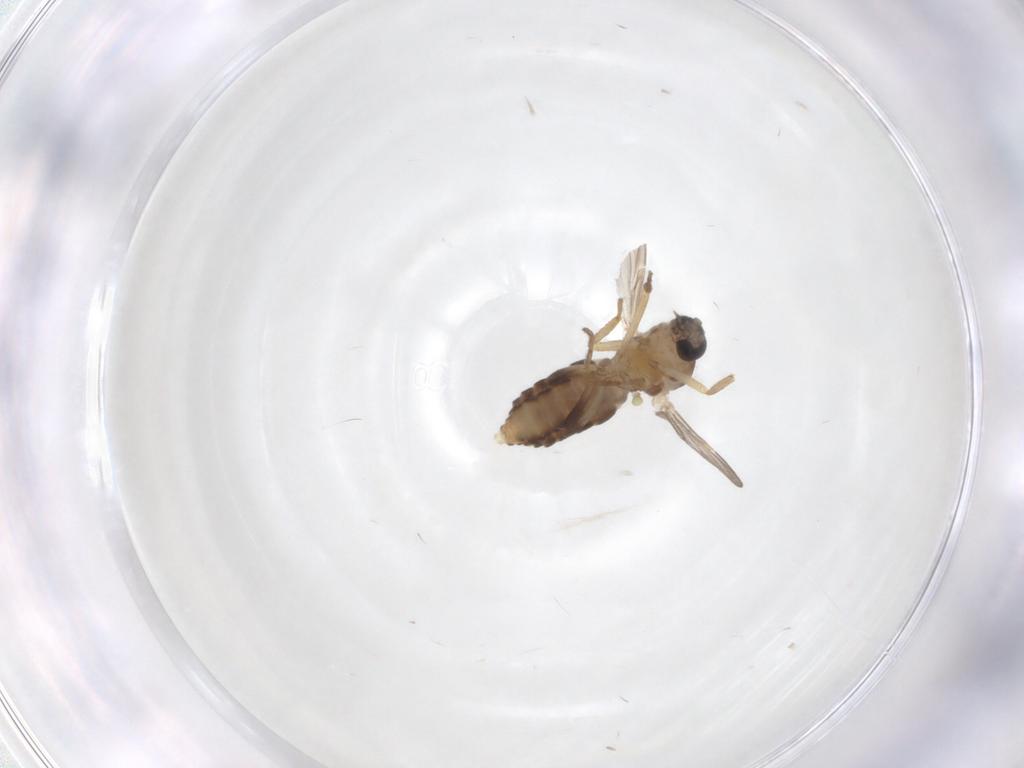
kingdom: Animalia
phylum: Arthropoda
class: Insecta
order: Diptera
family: Ceratopogonidae
